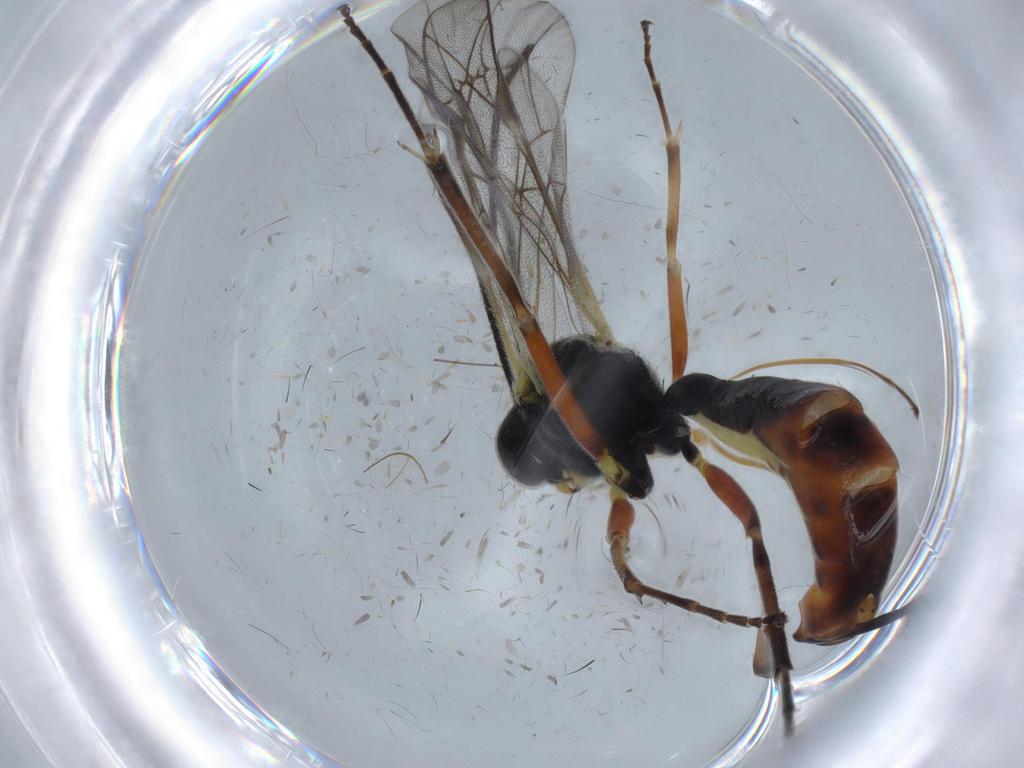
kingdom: Animalia
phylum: Arthropoda
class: Insecta
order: Hymenoptera
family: Ichneumonidae
